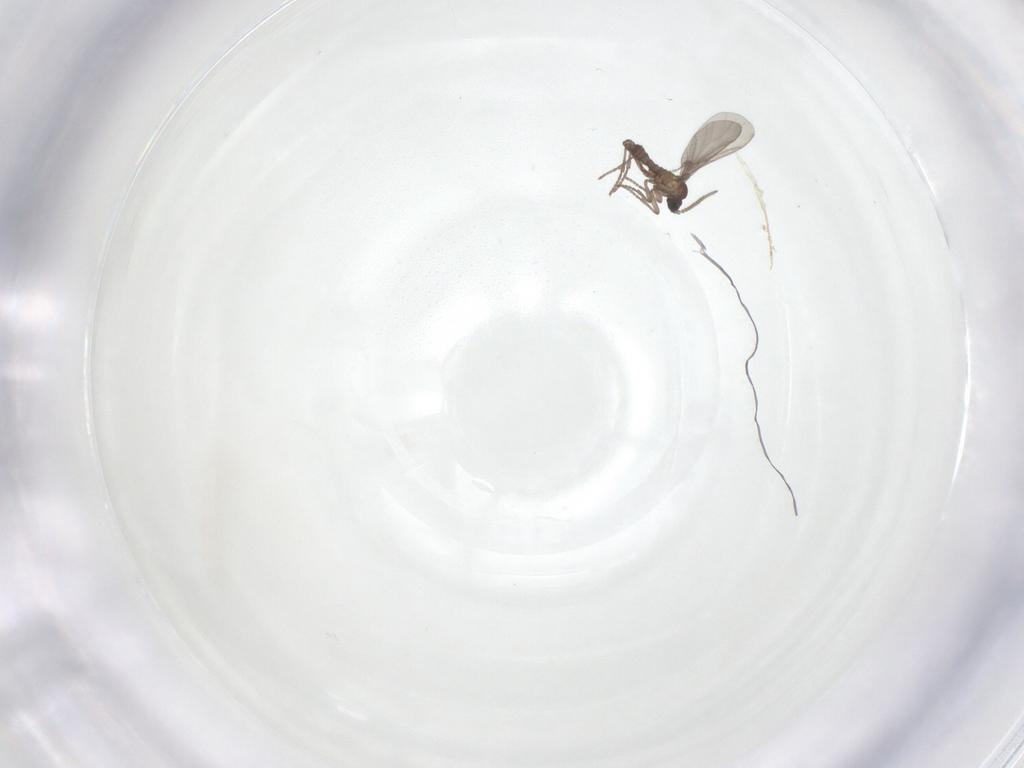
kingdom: Animalia
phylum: Arthropoda
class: Insecta
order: Diptera
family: Sciaridae
